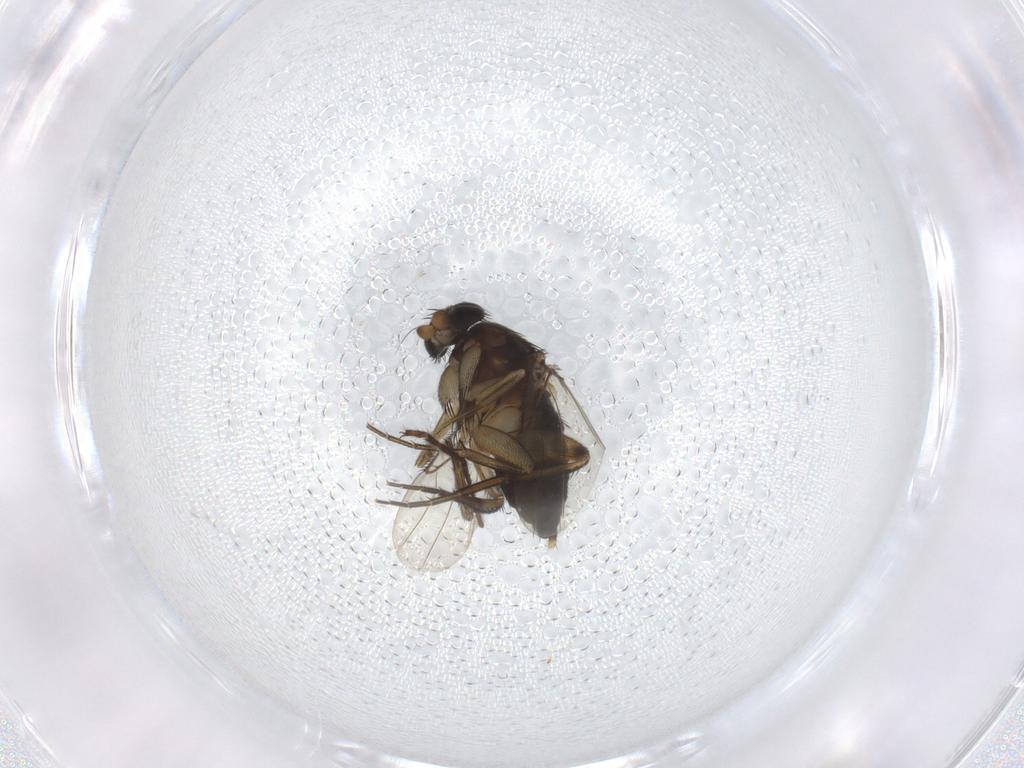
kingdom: Animalia
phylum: Arthropoda
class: Insecta
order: Diptera
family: Phoridae
